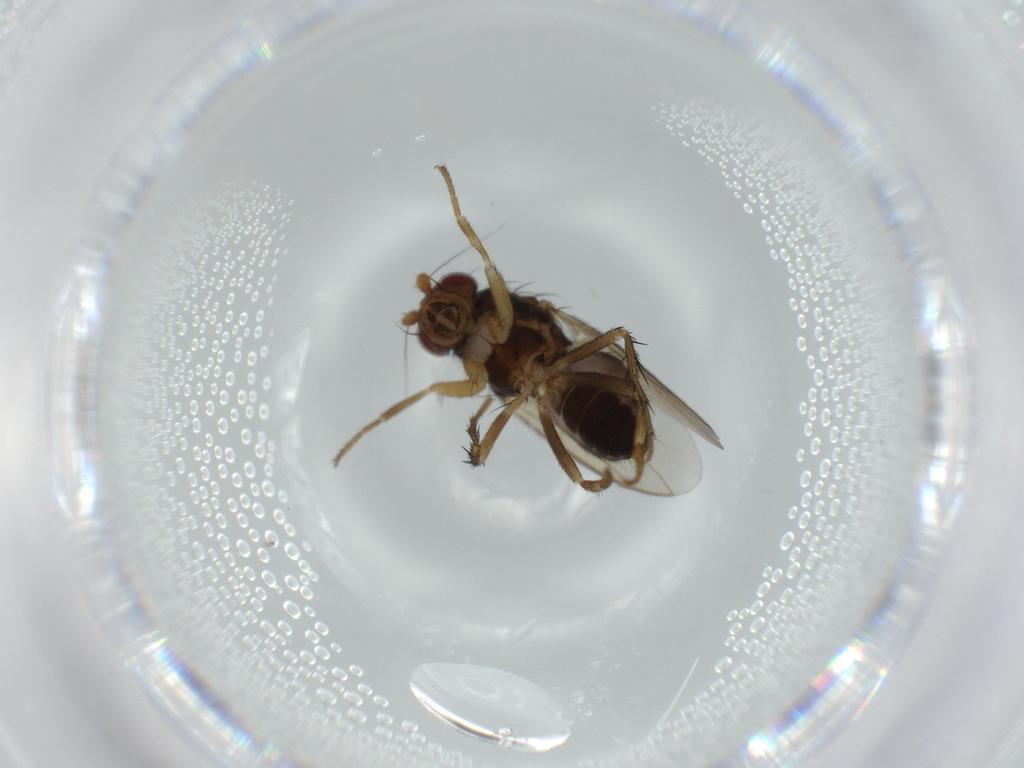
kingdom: Animalia
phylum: Arthropoda
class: Insecta
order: Diptera
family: Sphaeroceridae
